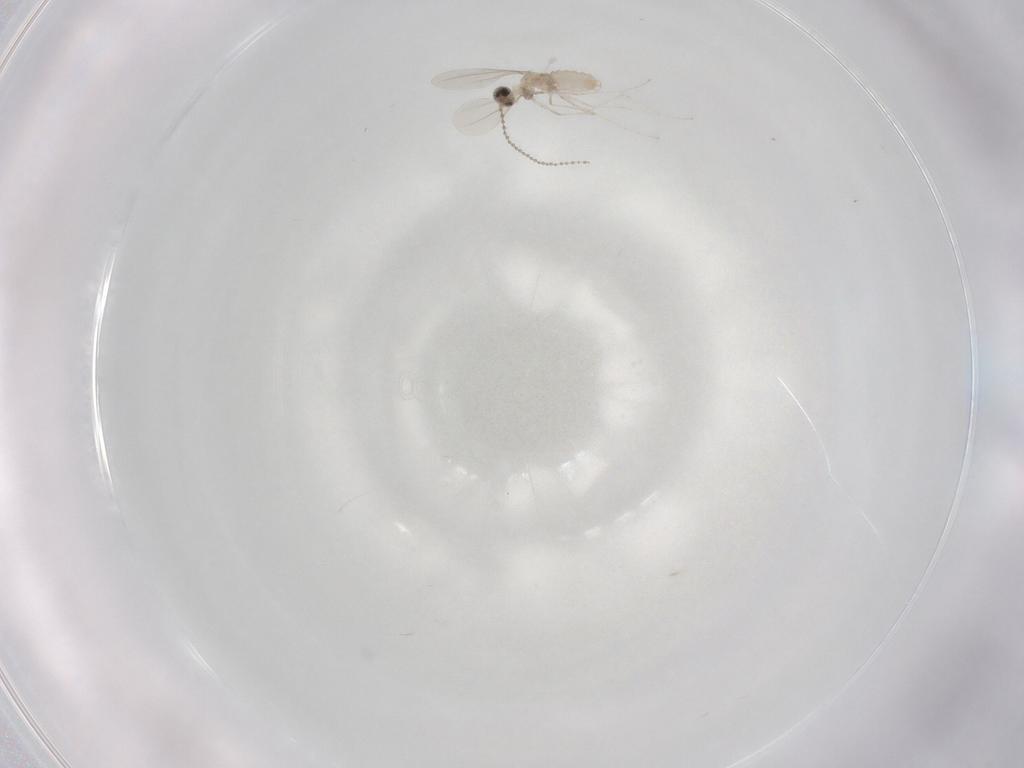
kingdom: Animalia
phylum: Arthropoda
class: Insecta
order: Diptera
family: Cecidomyiidae
